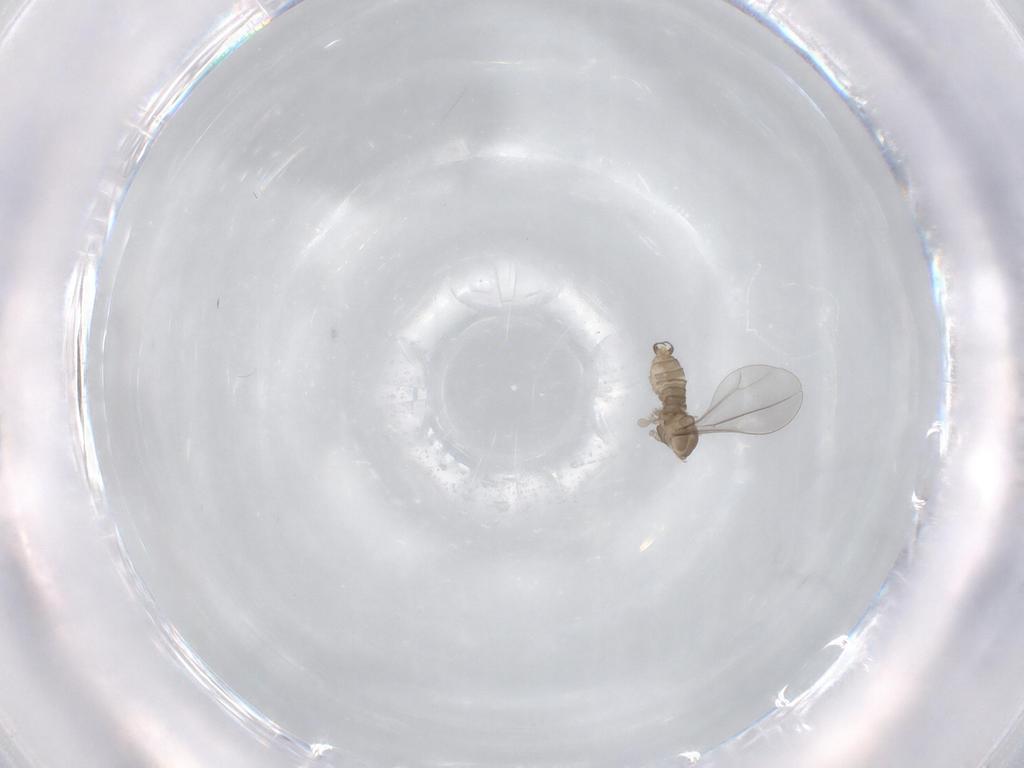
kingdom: Animalia
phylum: Arthropoda
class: Insecta
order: Diptera
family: Cecidomyiidae
